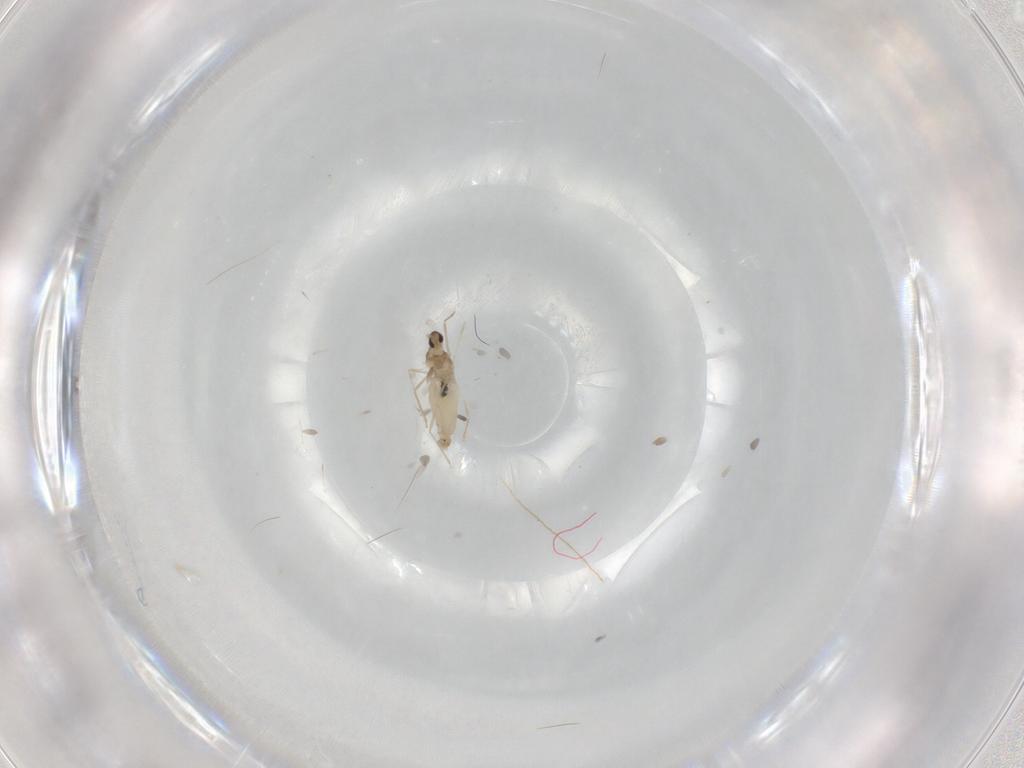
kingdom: Animalia
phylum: Arthropoda
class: Insecta
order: Diptera
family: Cecidomyiidae
